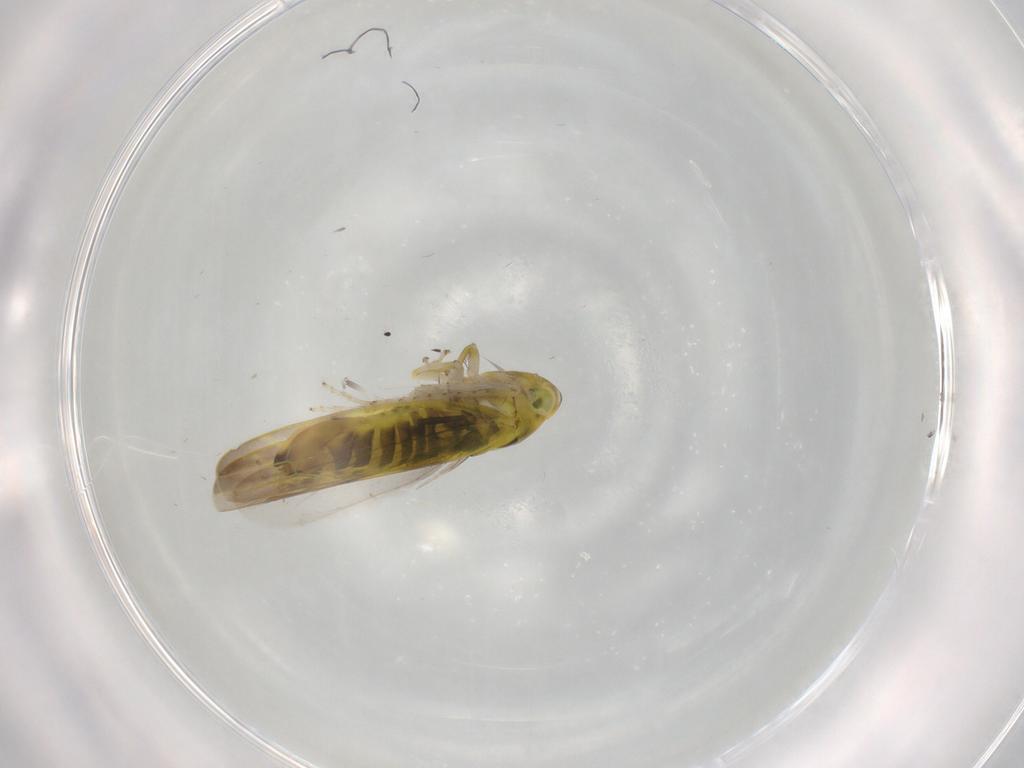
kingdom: Animalia
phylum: Arthropoda
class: Insecta
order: Hemiptera
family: Cicadellidae
